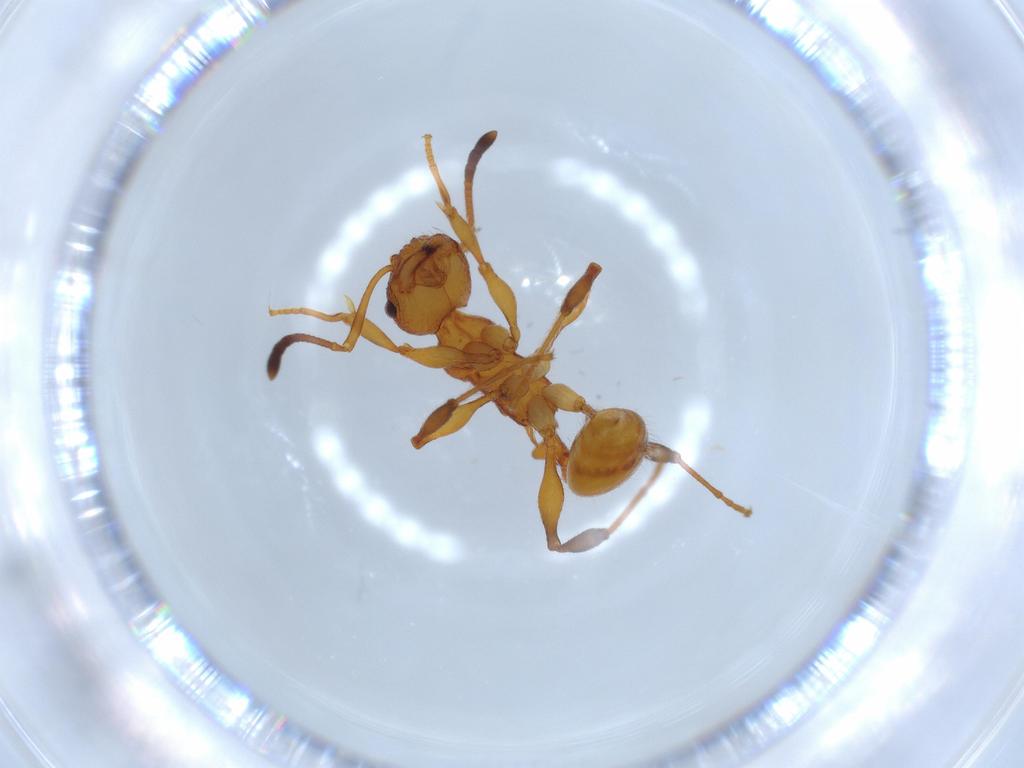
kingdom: Animalia
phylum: Arthropoda
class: Insecta
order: Hymenoptera
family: Formicidae
